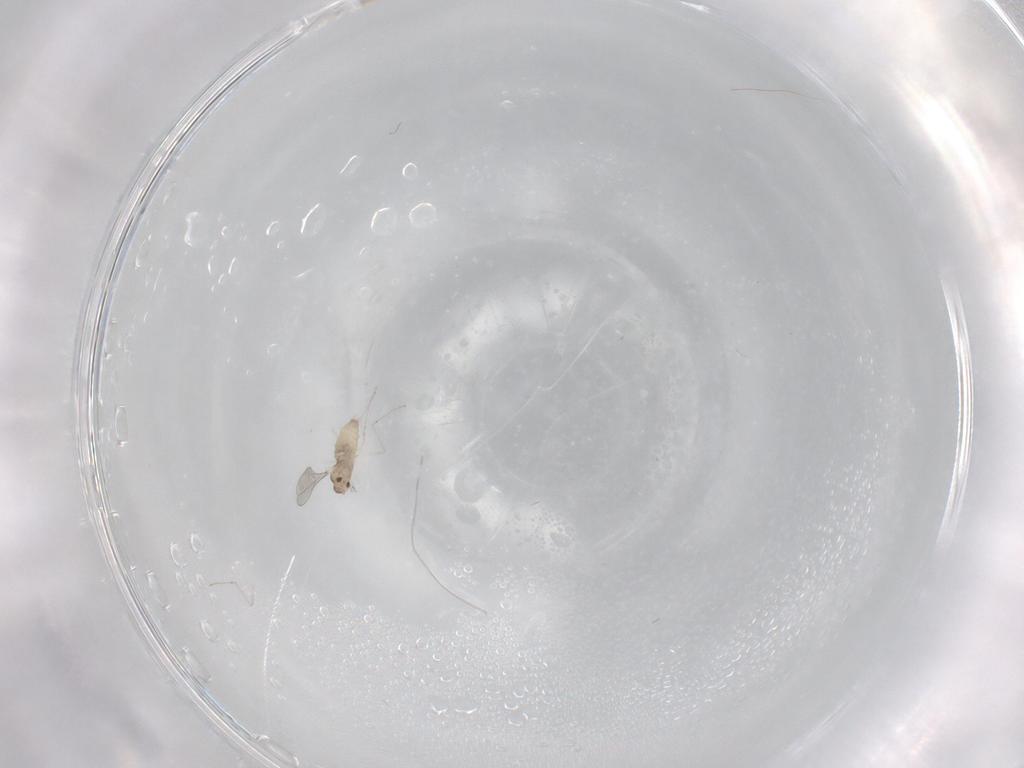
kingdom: Animalia
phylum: Arthropoda
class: Insecta
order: Diptera
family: Cecidomyiidae
